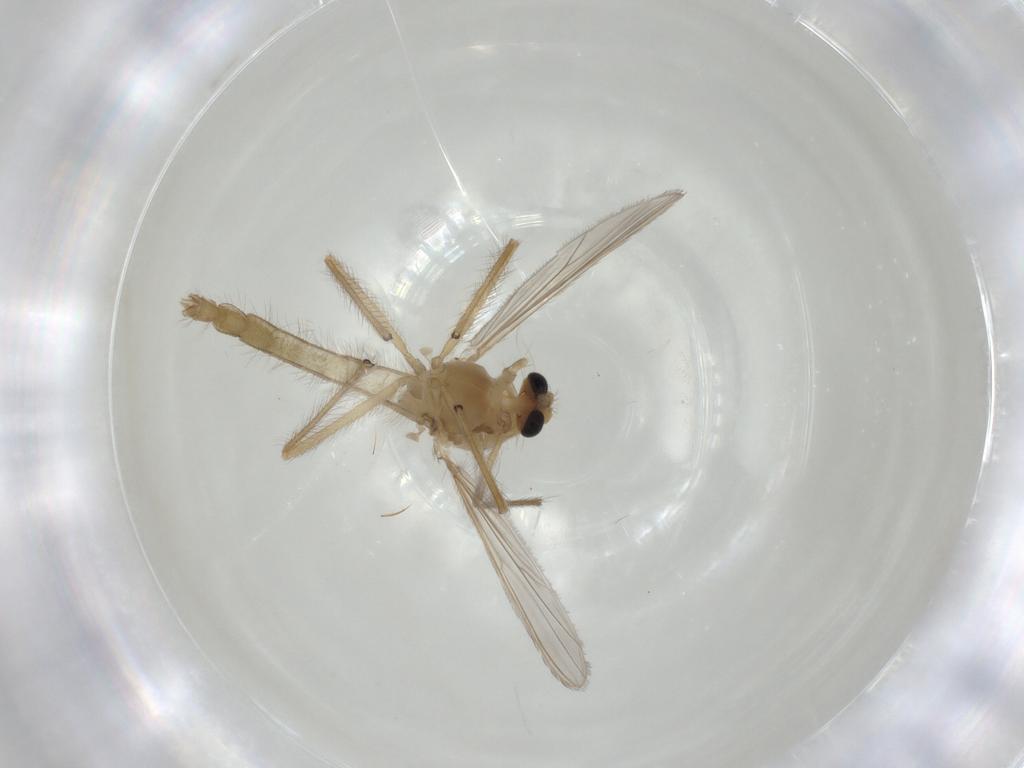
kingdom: Animalia
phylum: Arthropoda
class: Insecta
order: Diptera
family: Chironomidae
